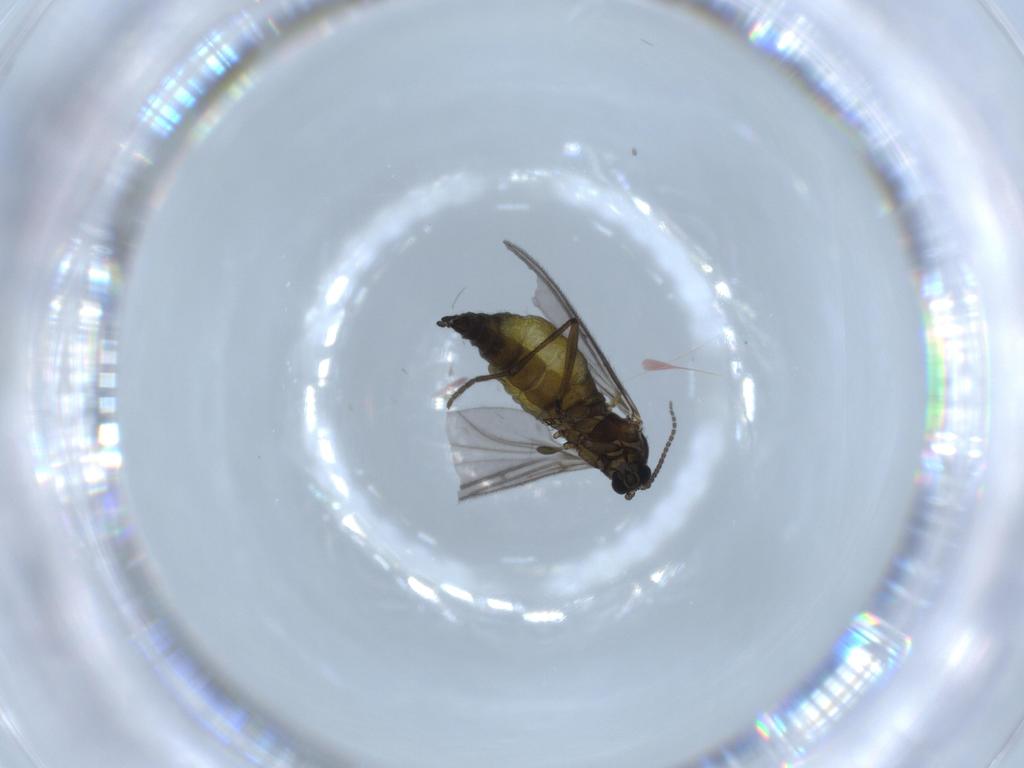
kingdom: Animalia
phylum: Arthropoda
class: Insecta
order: Diptera
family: Sciaridae
